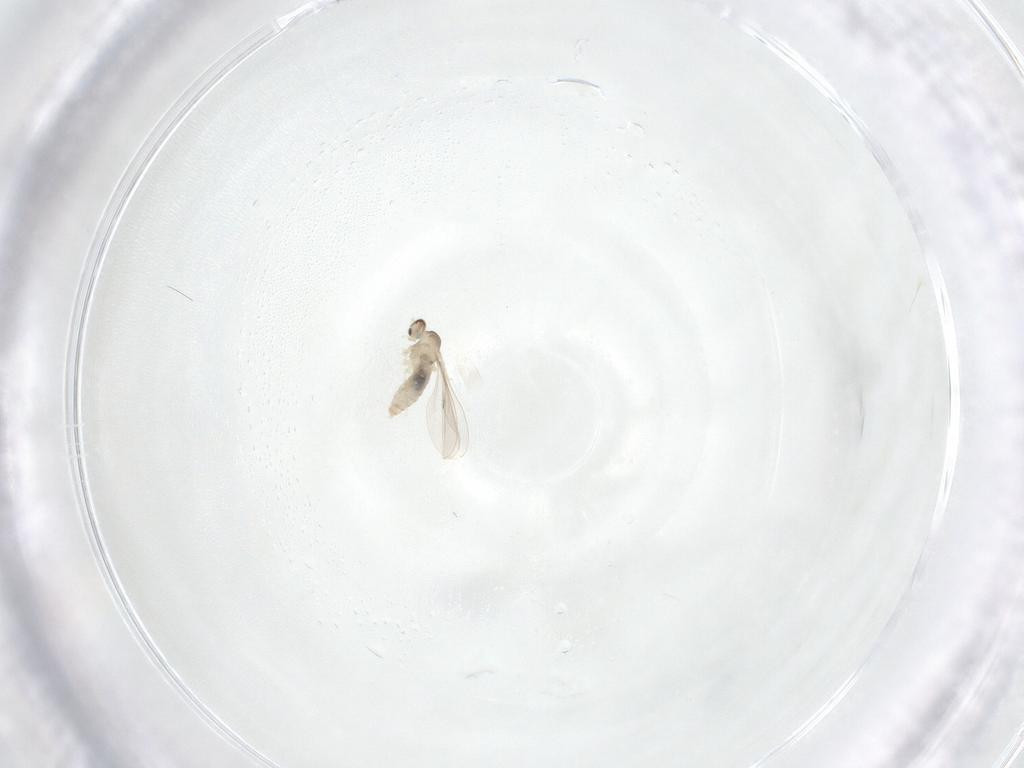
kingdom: Animalia
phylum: Arthropoda
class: Insecta
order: Diptera
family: Cecidomyiidae
